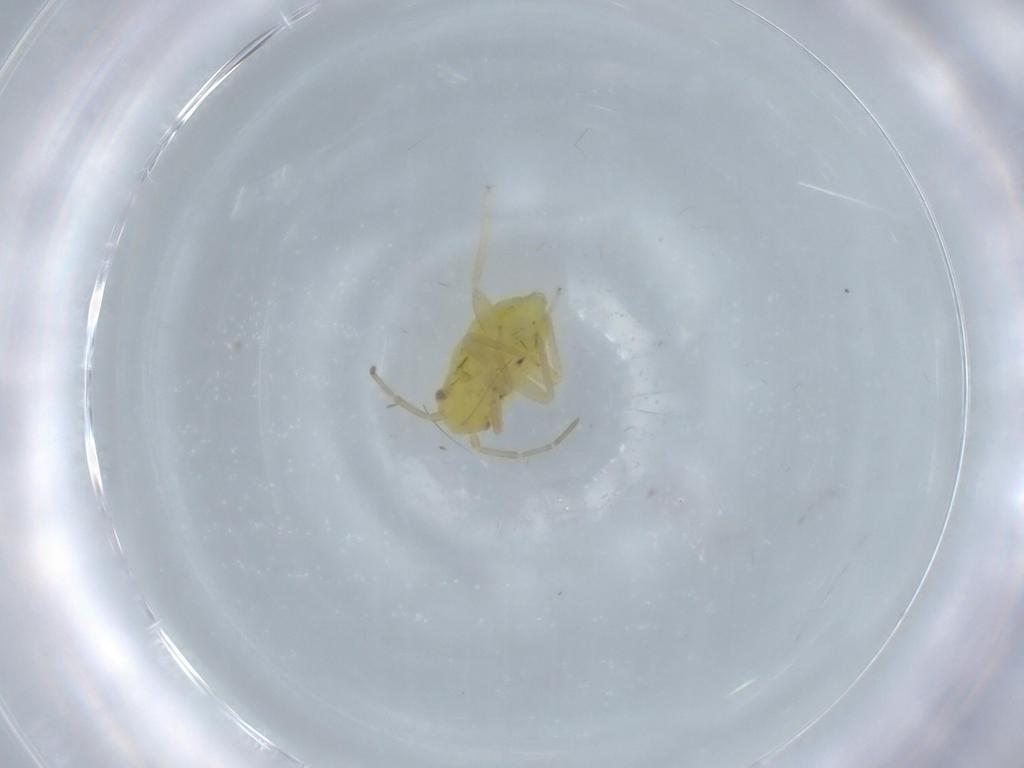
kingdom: Animalia
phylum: Arthropoda
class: Insecta
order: Hemiptera
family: Miridae
